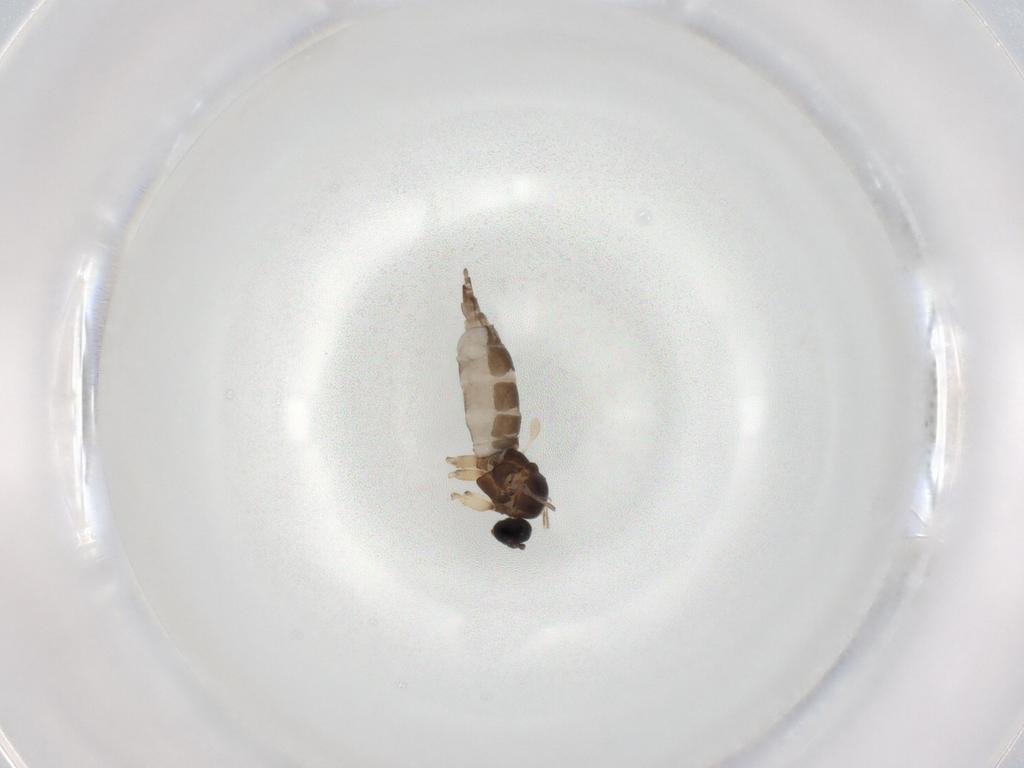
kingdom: Animalia
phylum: Arthropoda
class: Insecta
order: Diptera
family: Sciaridae
